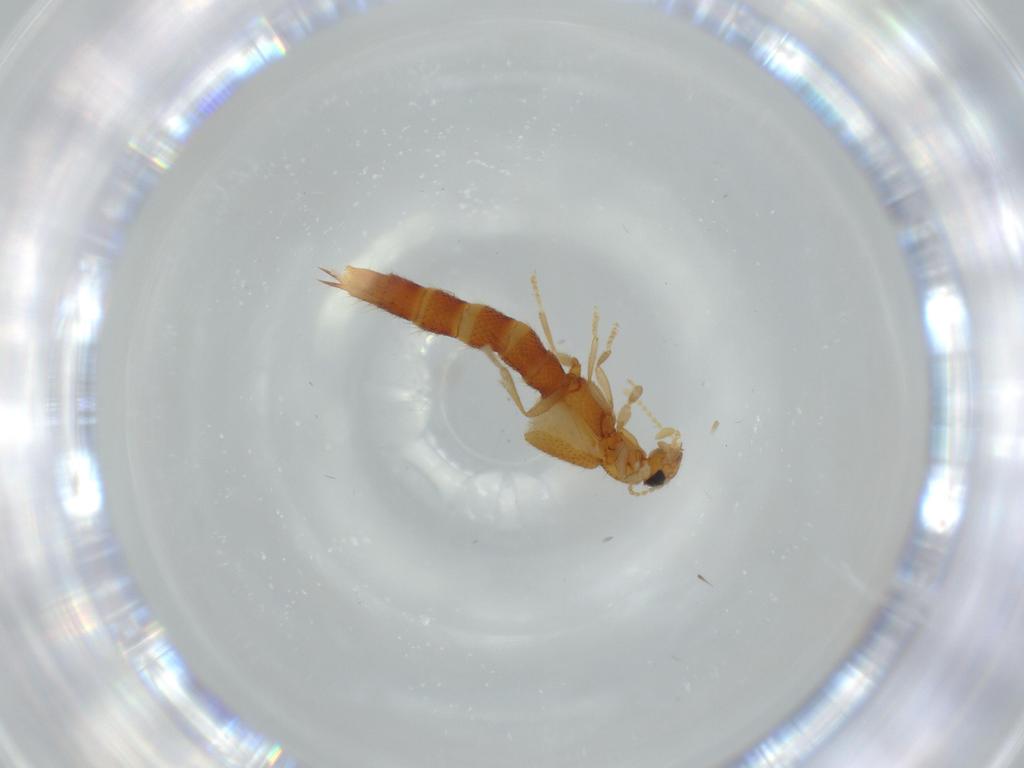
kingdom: Animalia
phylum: Arthropoda
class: Insecta
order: Coleoptera
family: Staphylinidae
